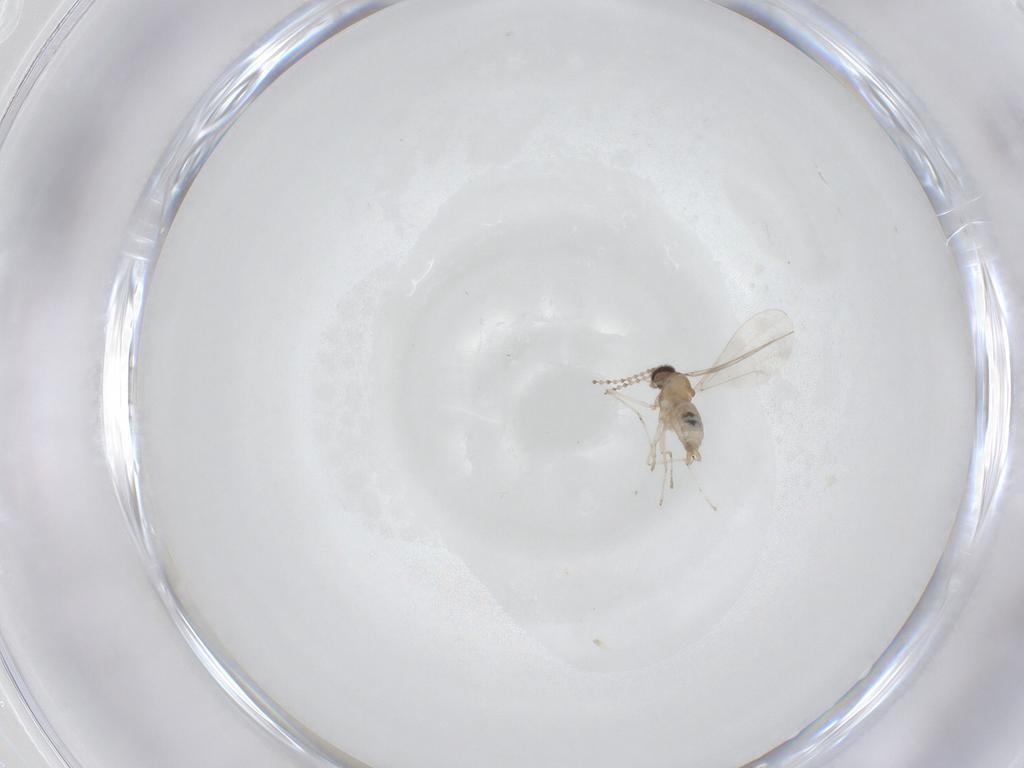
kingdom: Animalia
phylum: Arthropoda
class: Insecta
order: Diptera
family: Cecidomyiidae
